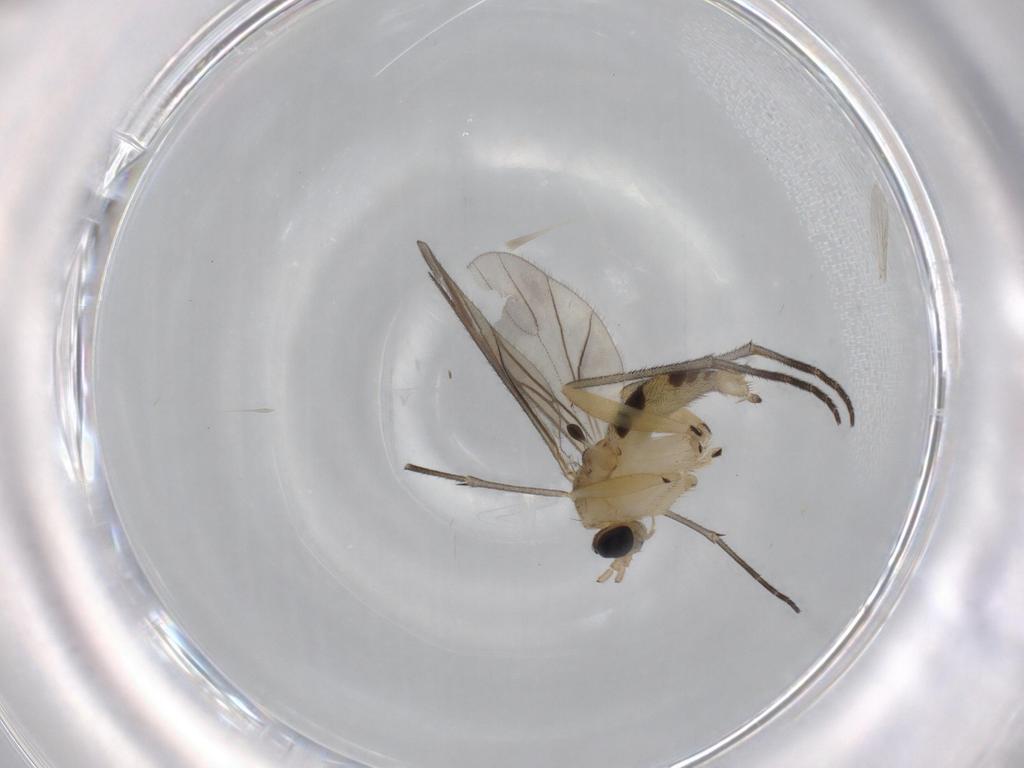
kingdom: Animalia
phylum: Arthropoda
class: Insecta
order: Diptera
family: Sciaridae
